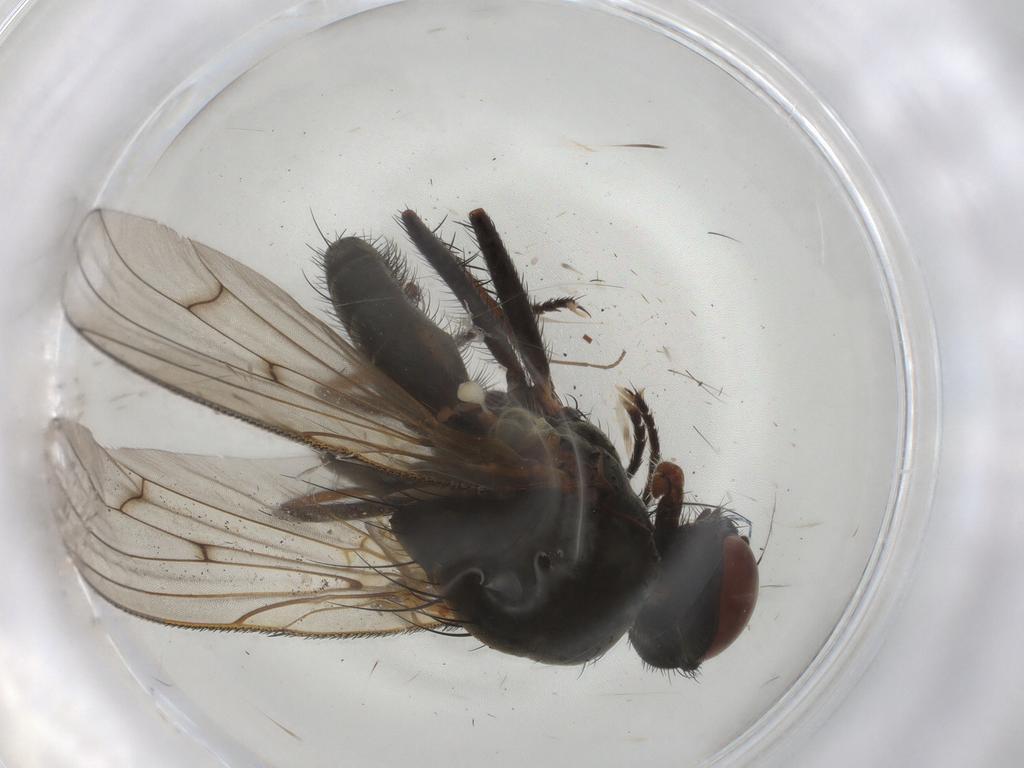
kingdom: Animalia
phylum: Arthropoda
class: Insecta
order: Diptera
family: Anthomyiidae
